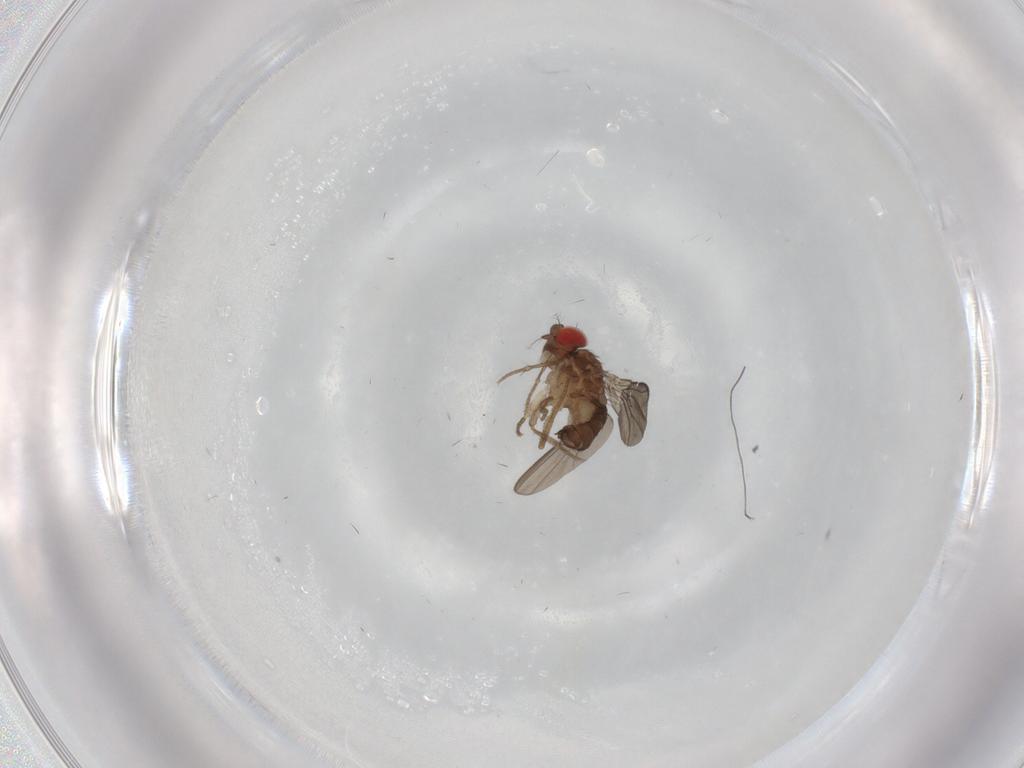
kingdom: Animalia
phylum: Arthropoda
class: Insecta
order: Diptera
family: Drosophilidae
